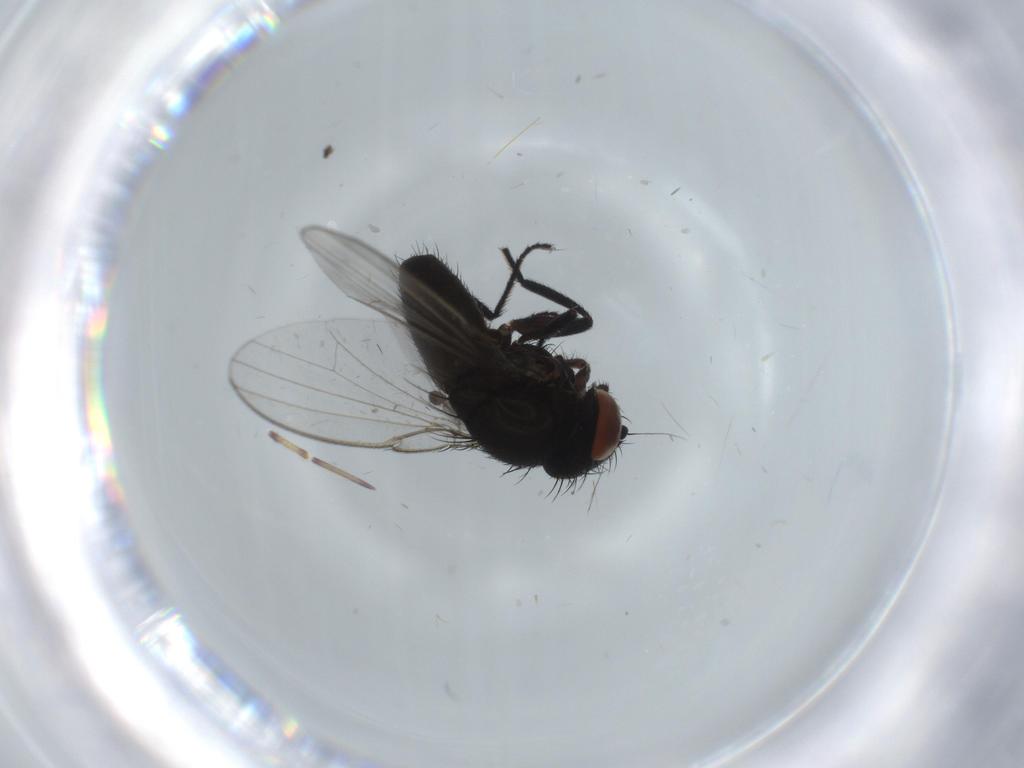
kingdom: Animalia
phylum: Arthropoda
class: Insecta
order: Diptera
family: Milichiidae
